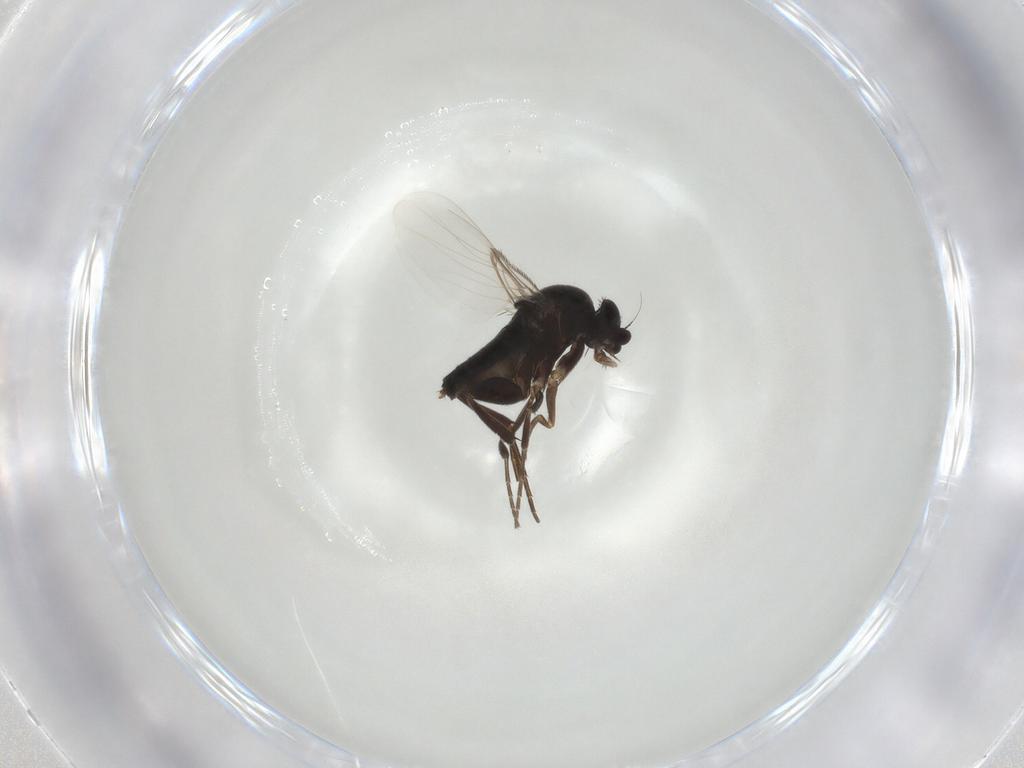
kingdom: Animalia
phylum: Arthropoda
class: Insecta
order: Diptera
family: Phoridae
